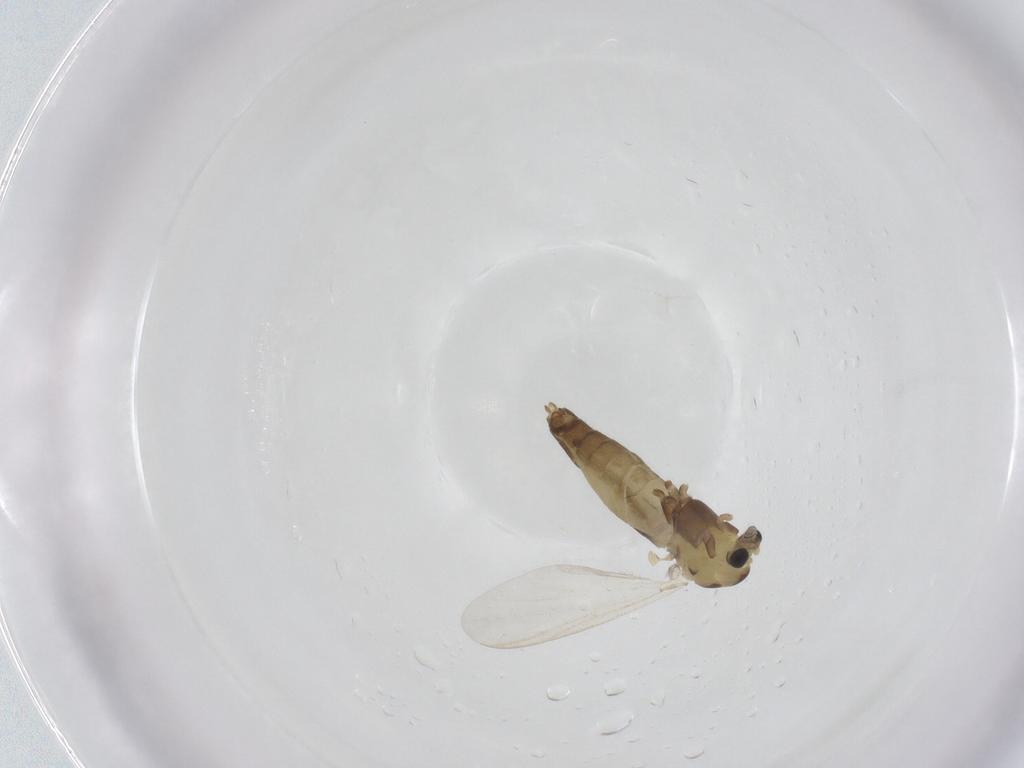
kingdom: Animalia
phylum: Arthropoda
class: Insecta
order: Diptera
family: Chironomidae
